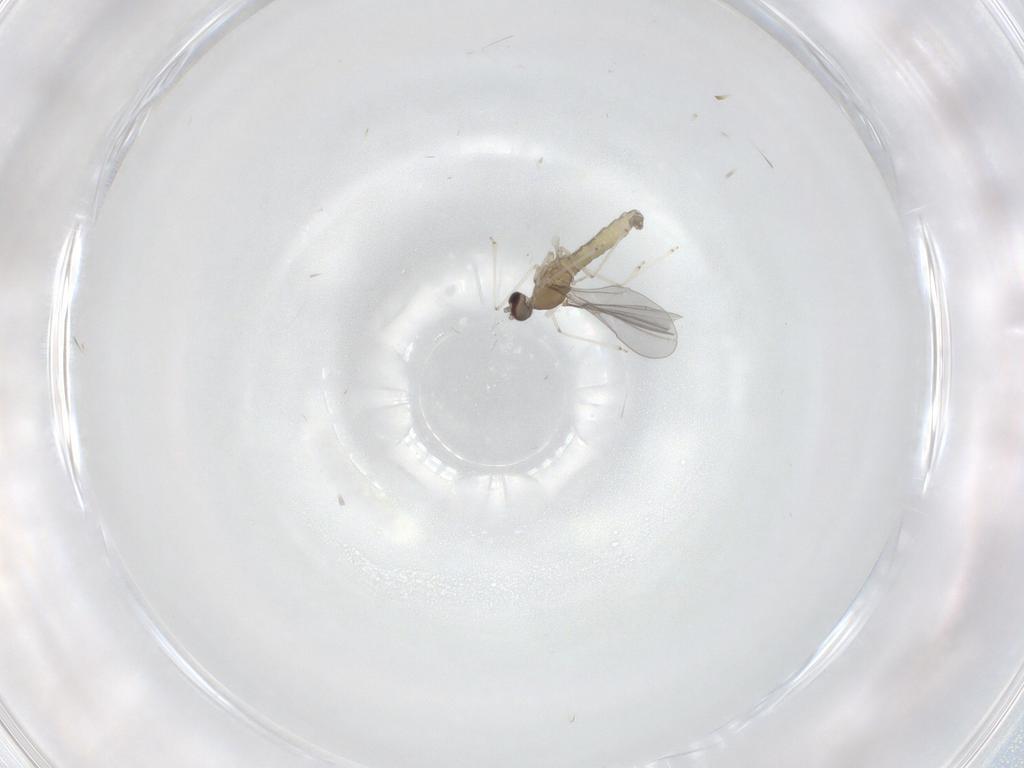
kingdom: Animalia
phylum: Arthropoda
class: Insecta
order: Diptera
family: Cecidomyiidae
